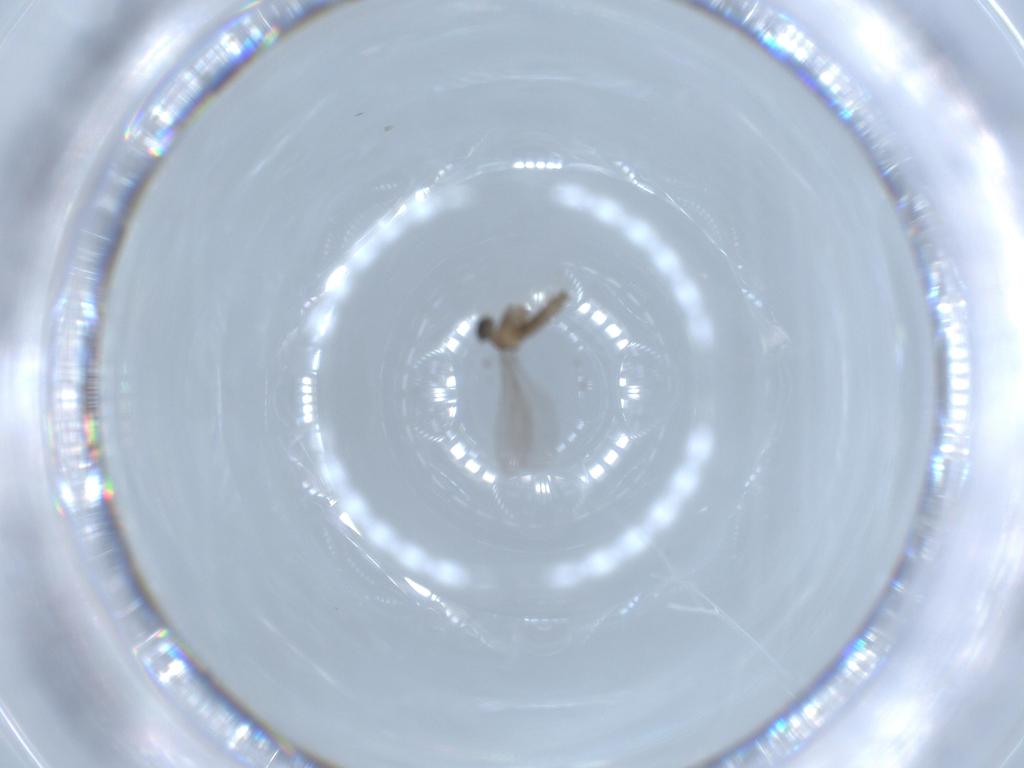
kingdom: Animalia
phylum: Arthropoda
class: Insecta
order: Diptera
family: Cecidomyiidae
